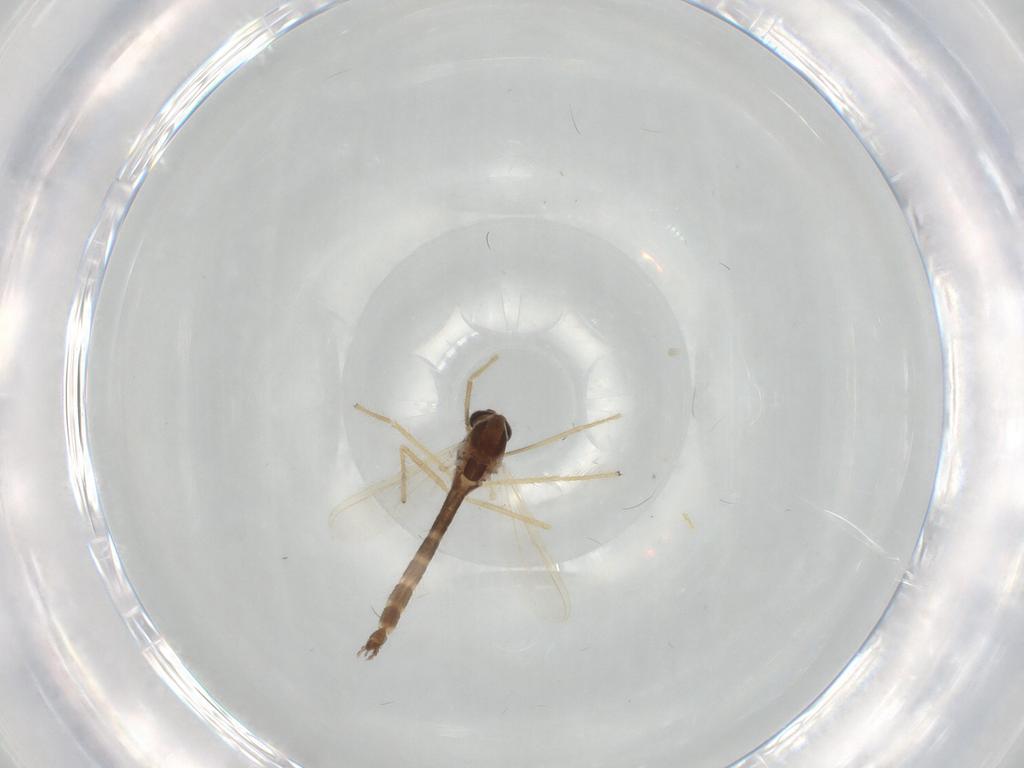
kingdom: Animalia
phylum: Arthropoda
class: Insecta
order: Diptera
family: Chironomidae
